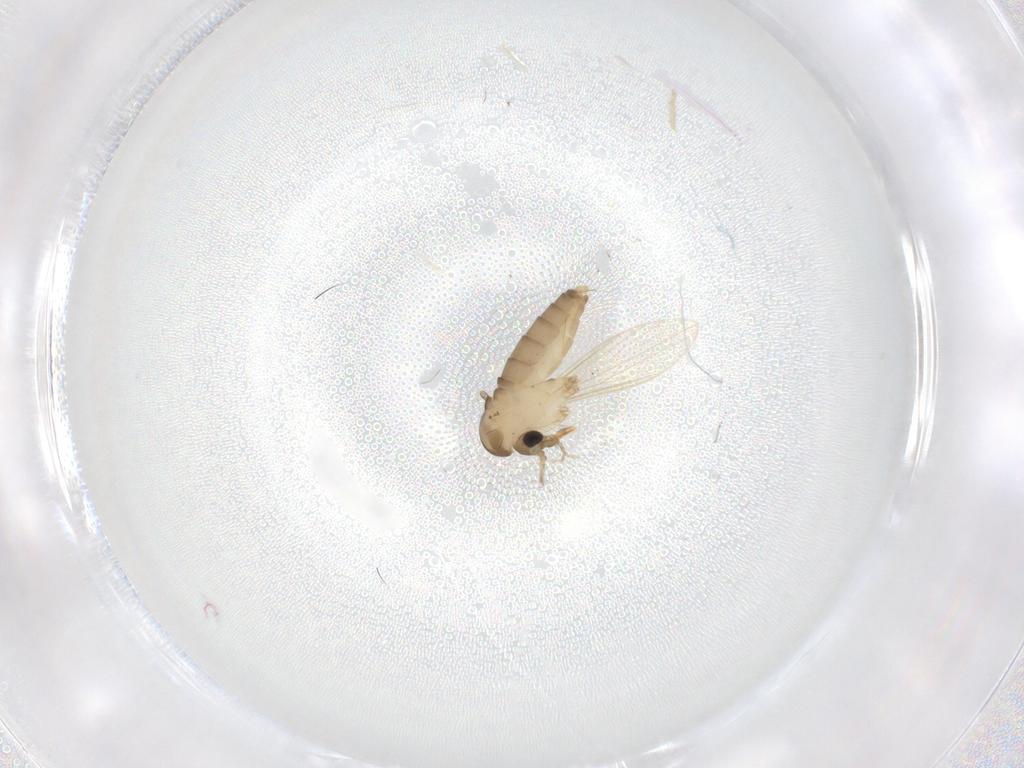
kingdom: Animalia
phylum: Arthropoda
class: Insecta
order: Diptera
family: Psychodidae
